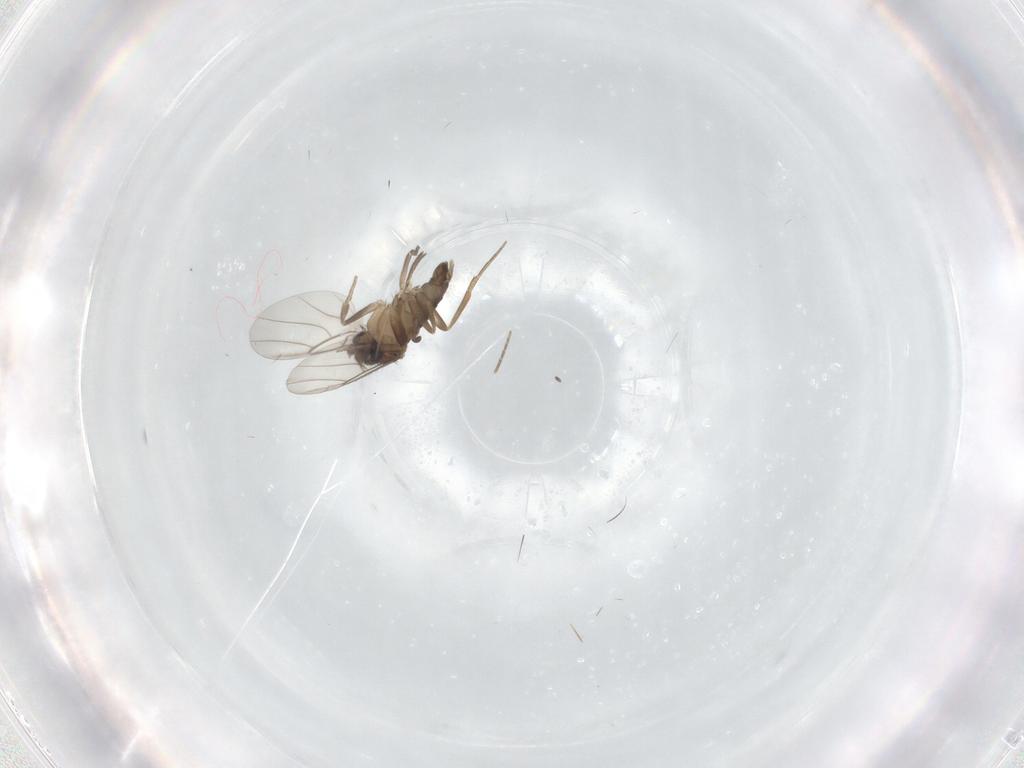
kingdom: Animalia
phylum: Arthropoda
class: Insecta
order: Diptera
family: Phoridae
